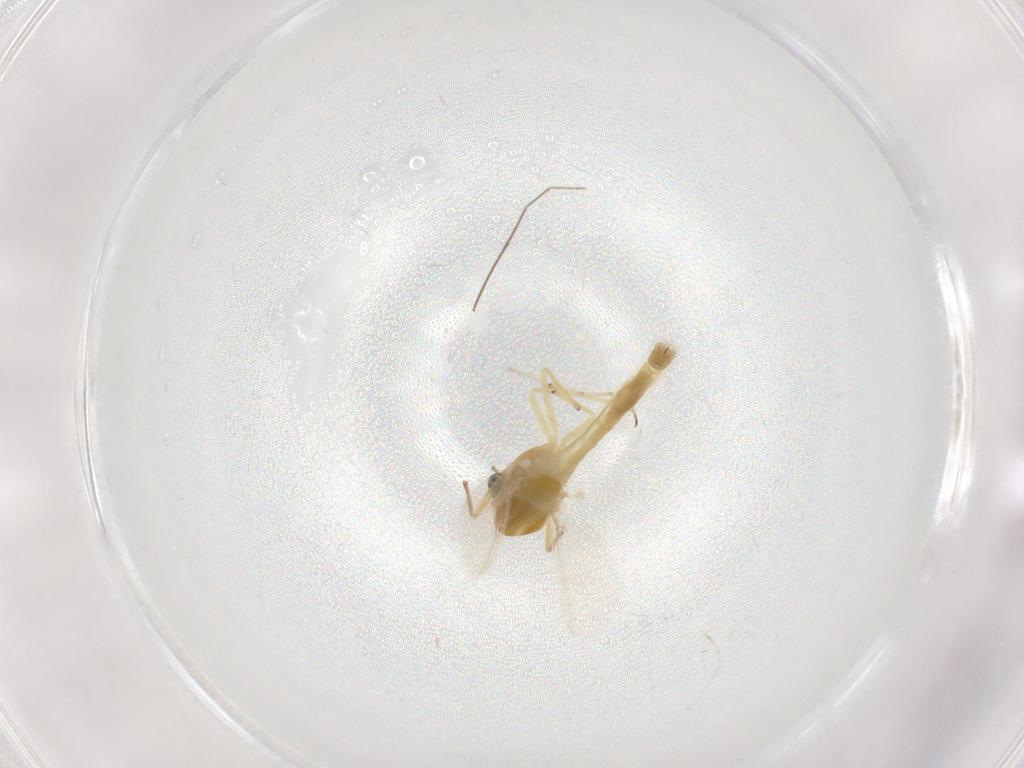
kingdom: Animalia
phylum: Arthropoda
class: Insecta
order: Diptera
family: Chironomidae
